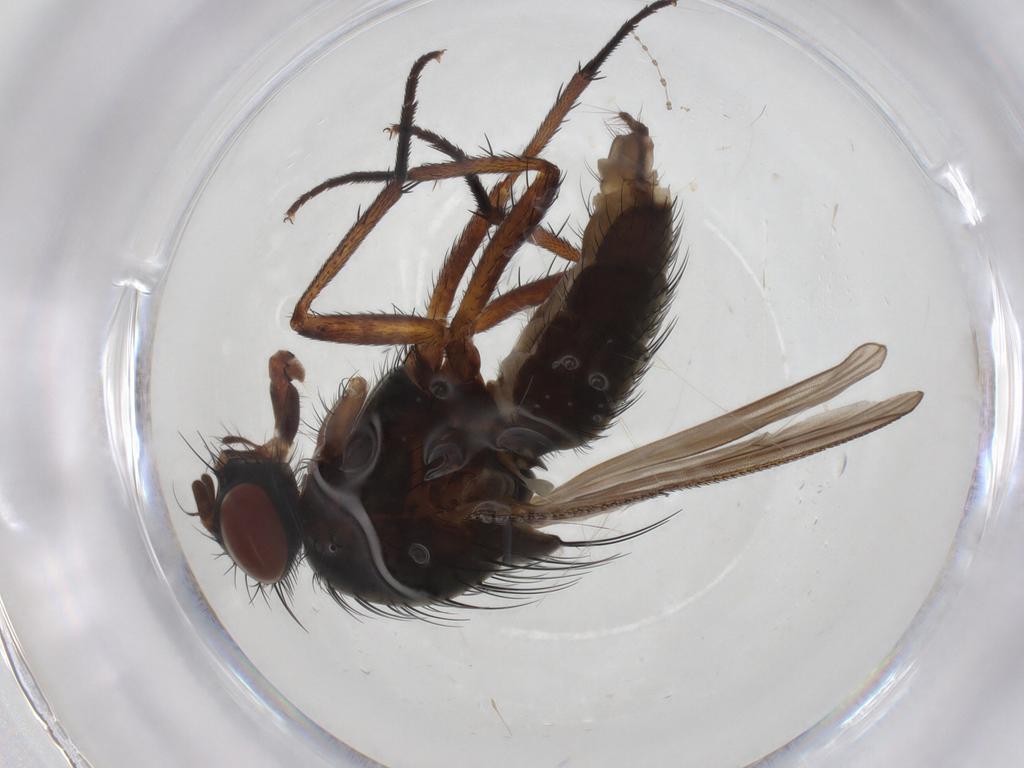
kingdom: Animalia
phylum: Arthropoda
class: Insecta
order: Diptera
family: Anthomyiidae
